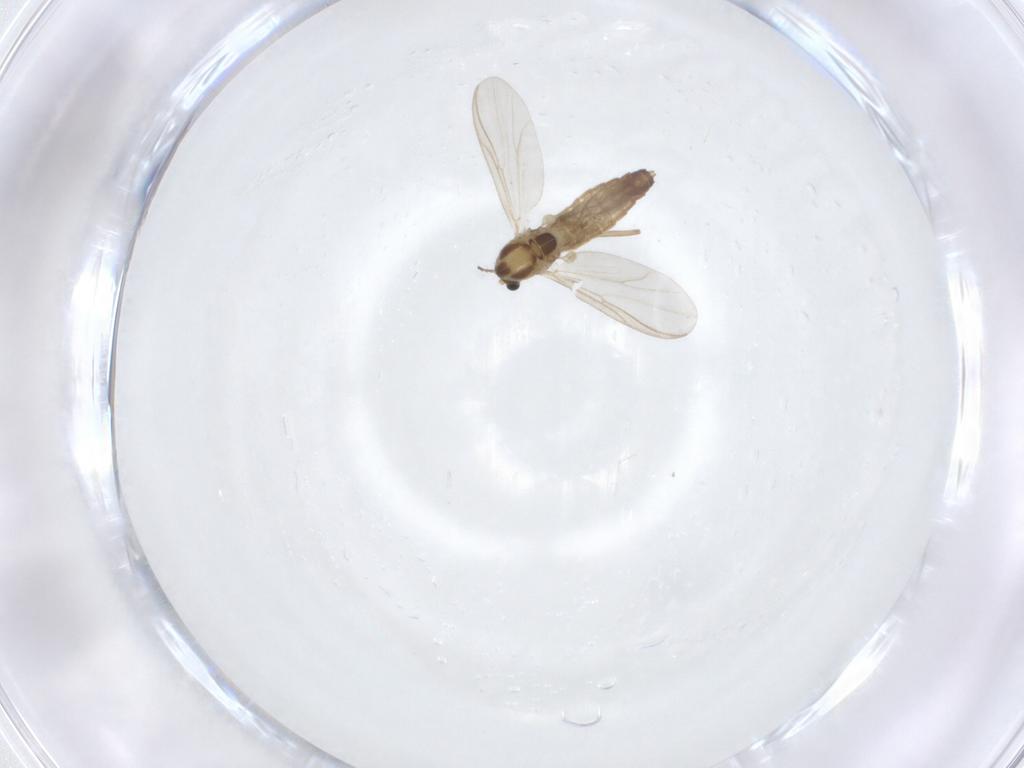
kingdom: Animalia
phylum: Arthropoda
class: Insecta
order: Diptera
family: Chironomidae
